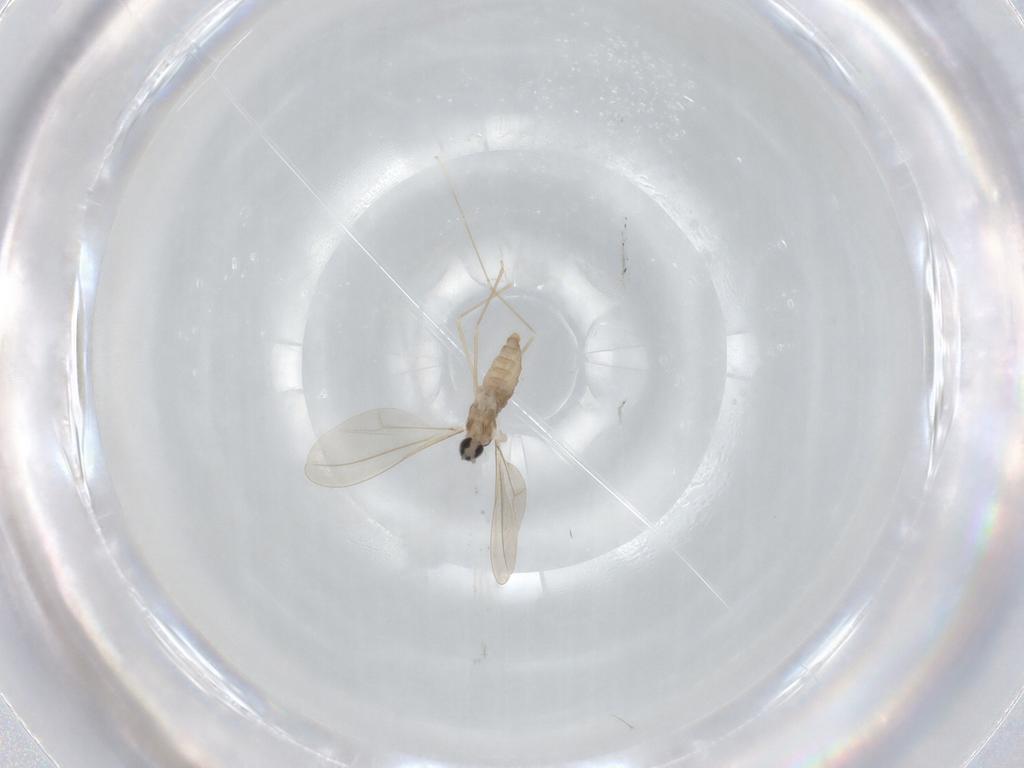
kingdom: Animalia
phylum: Arthropoda
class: Insecta
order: Diptera
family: Cecidomyiidae
